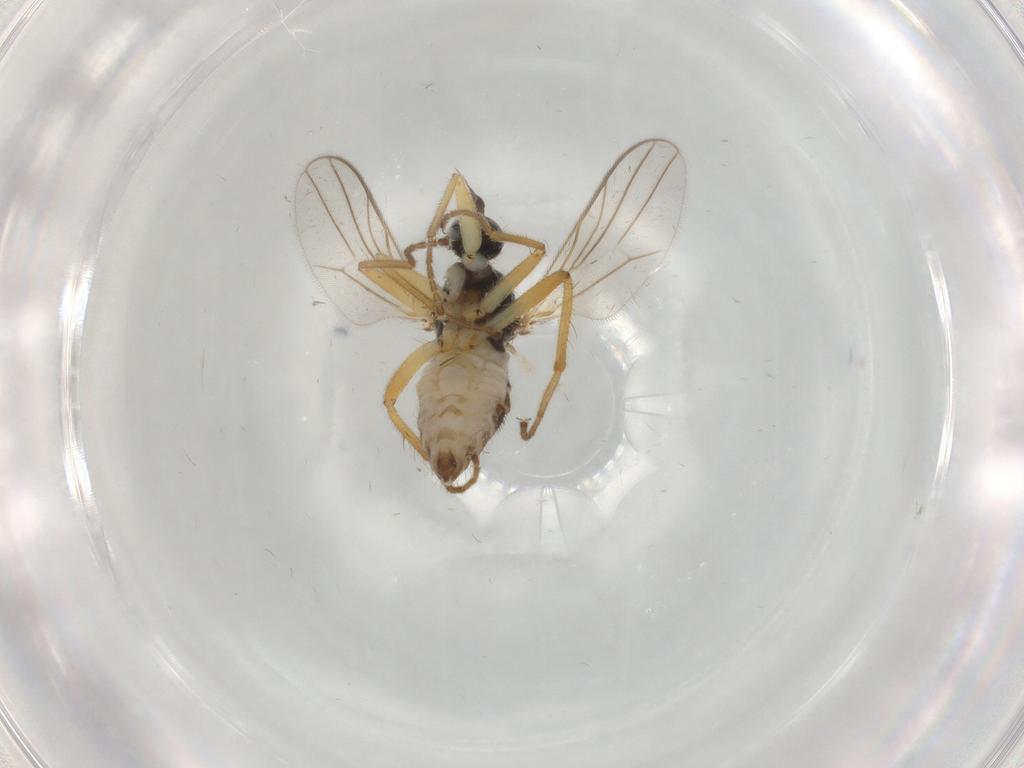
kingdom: Animalia
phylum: Arthropoda
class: Insecta
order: Diptera
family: Hybotidae
